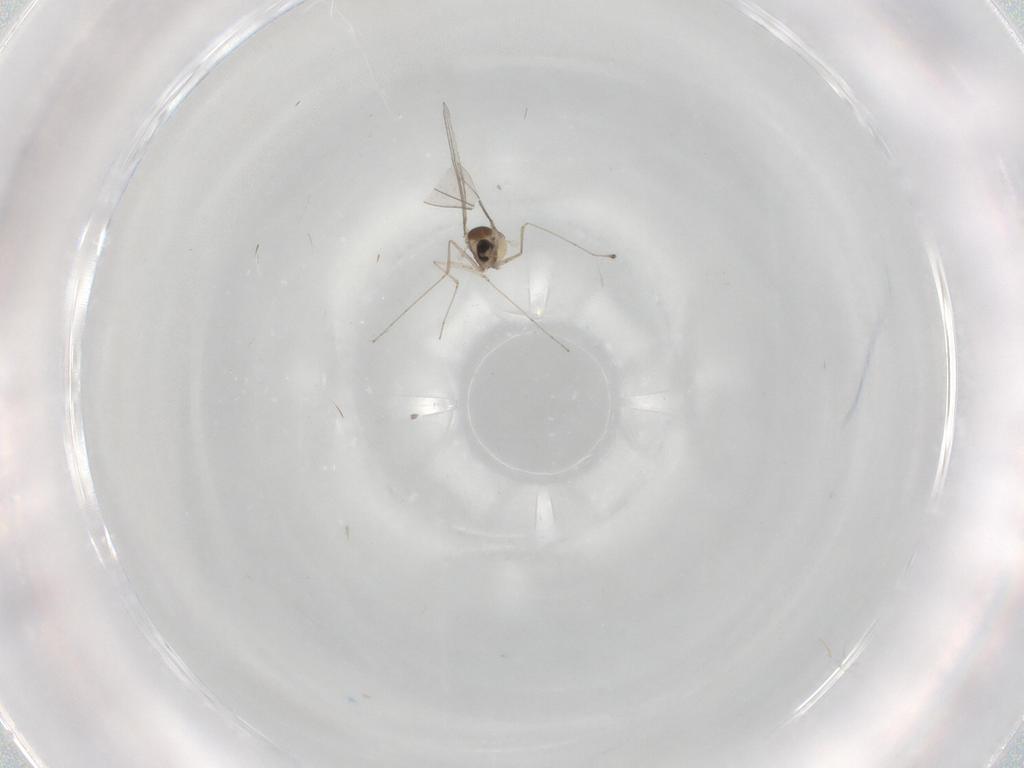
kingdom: Animalia
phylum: Arthropoda
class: Insecta
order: Diptera
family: Cecidomyiidae
